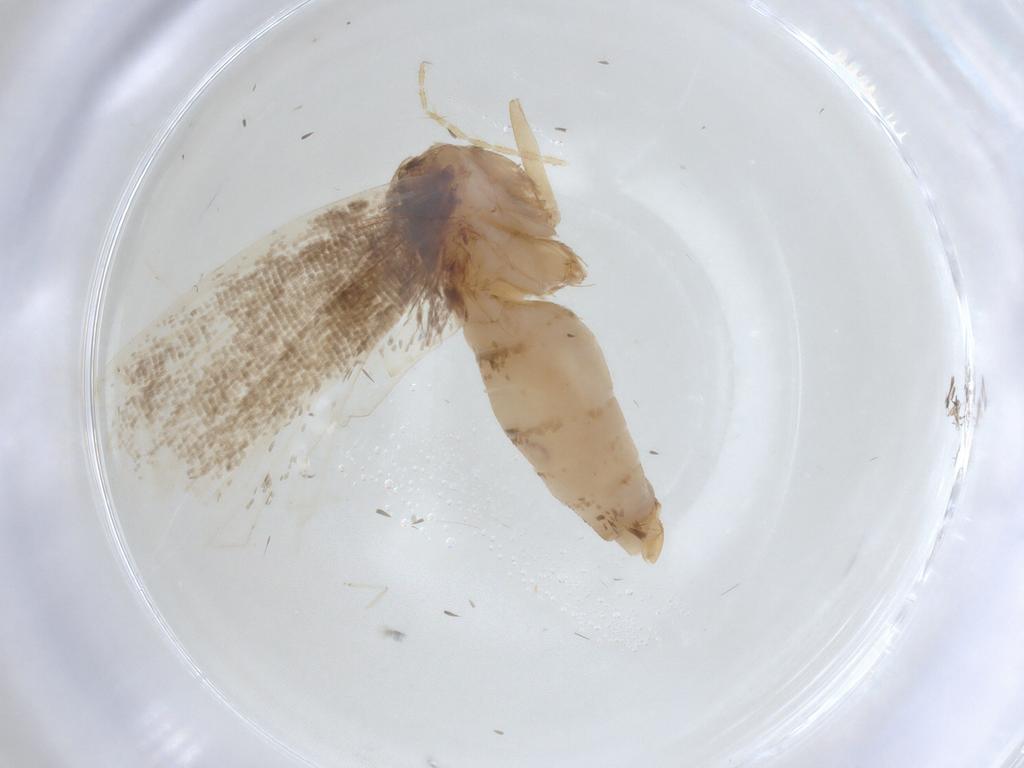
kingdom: Animalia
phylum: Arthropoda
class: Insecta
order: Lepidoptera
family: Gelechiidae
